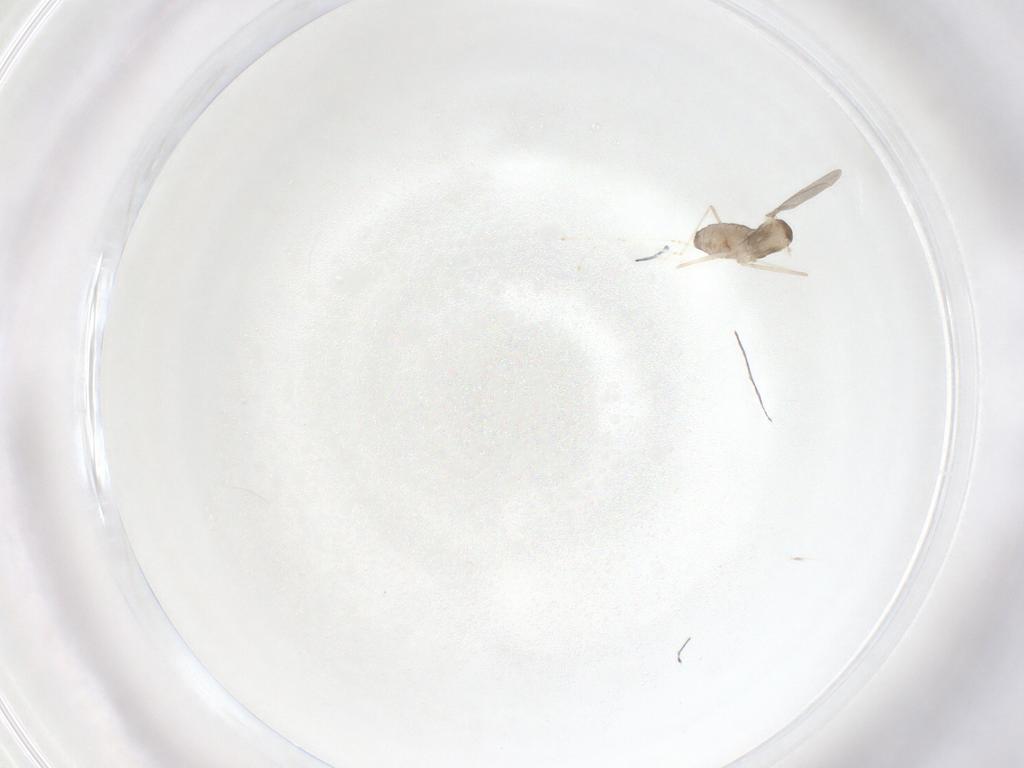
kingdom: Animalia
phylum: Arthropoda
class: Insecta
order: Diptera
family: Cecidomyiidae
